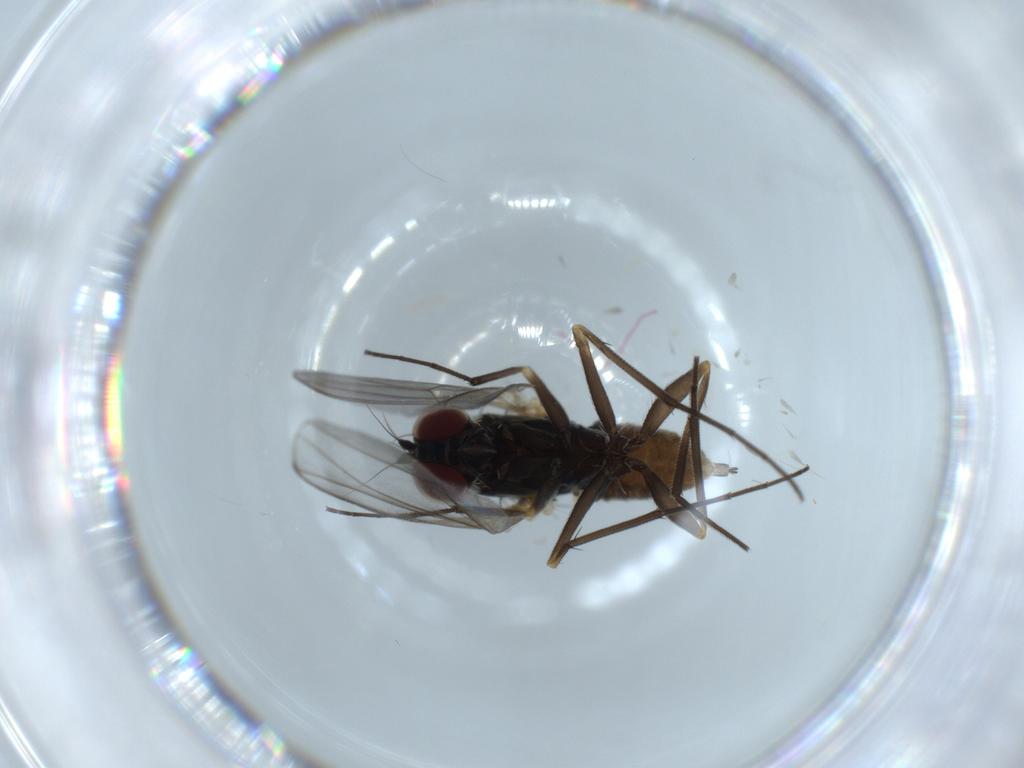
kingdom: Animalia
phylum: Arthropoda
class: Insecta
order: Diptera
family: Dolichopodidae
